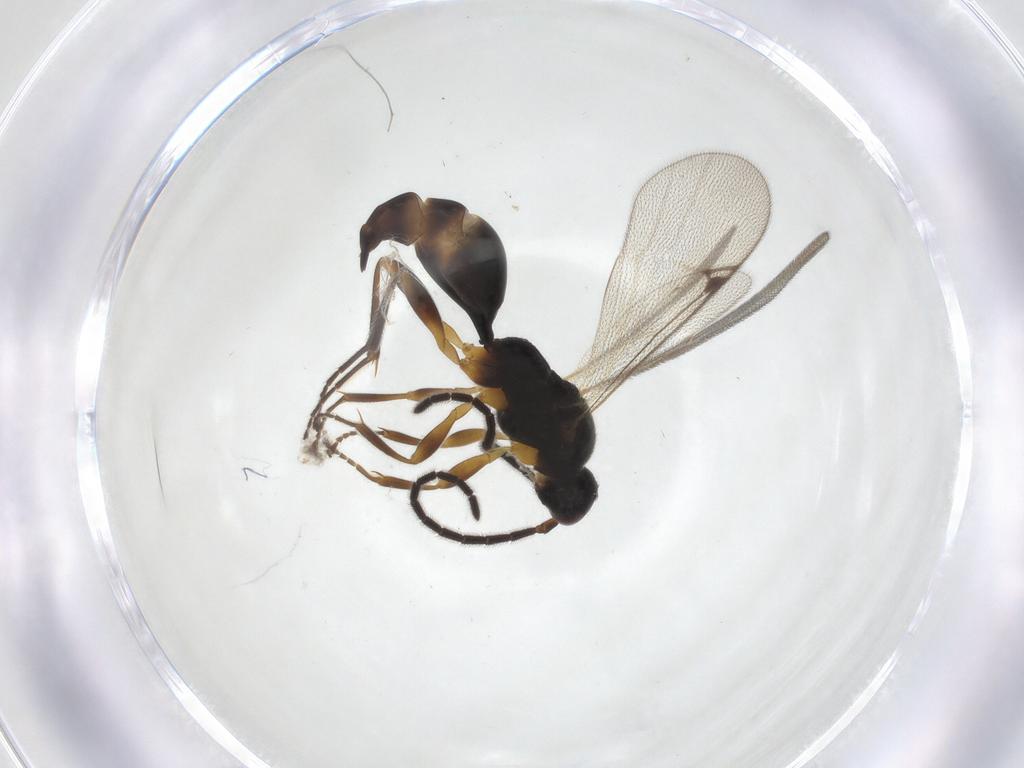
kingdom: Animalia
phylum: Arthropoda
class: Insecta
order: Hymenoptera
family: Proctotrupidae
